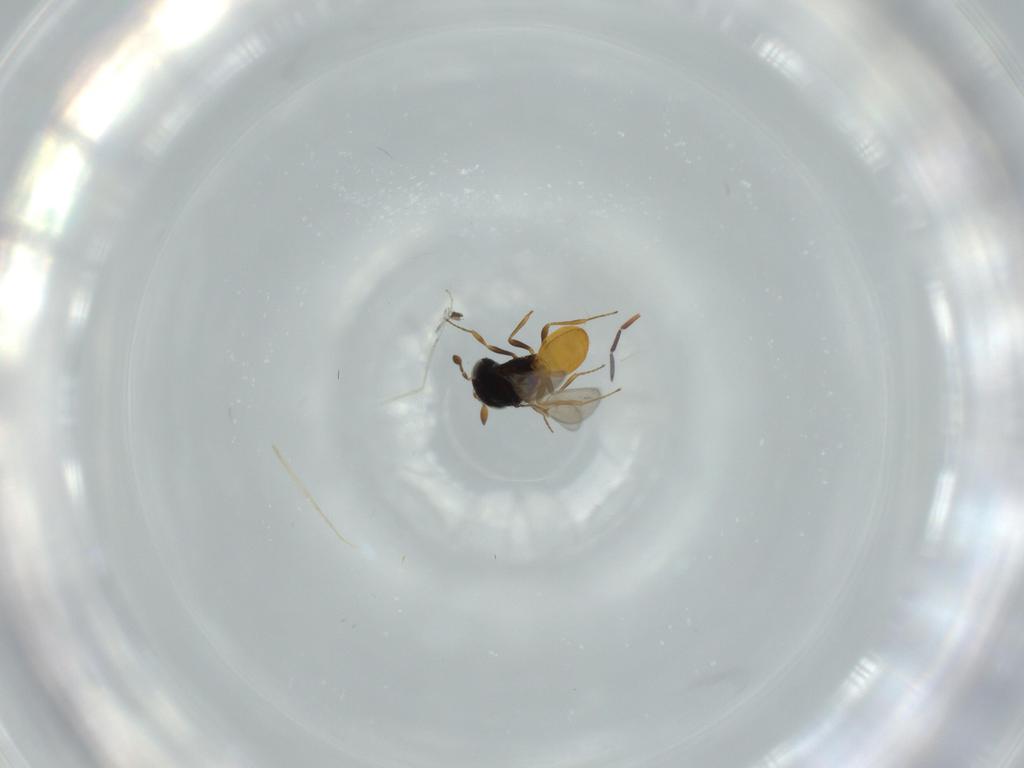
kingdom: Animalia
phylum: Arthropoda
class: Insecta
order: Hymenoptera
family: Scelionidae
